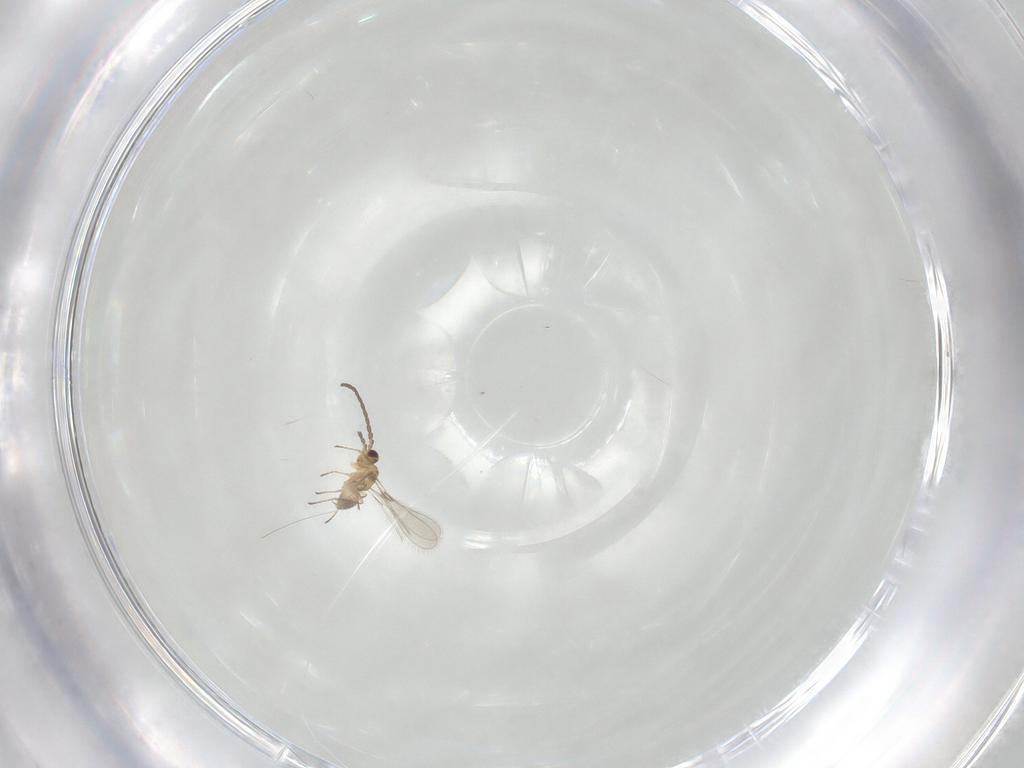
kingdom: Animalia
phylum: Arthropoda
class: Insecta
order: Hymenoptera
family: Mymaridae
